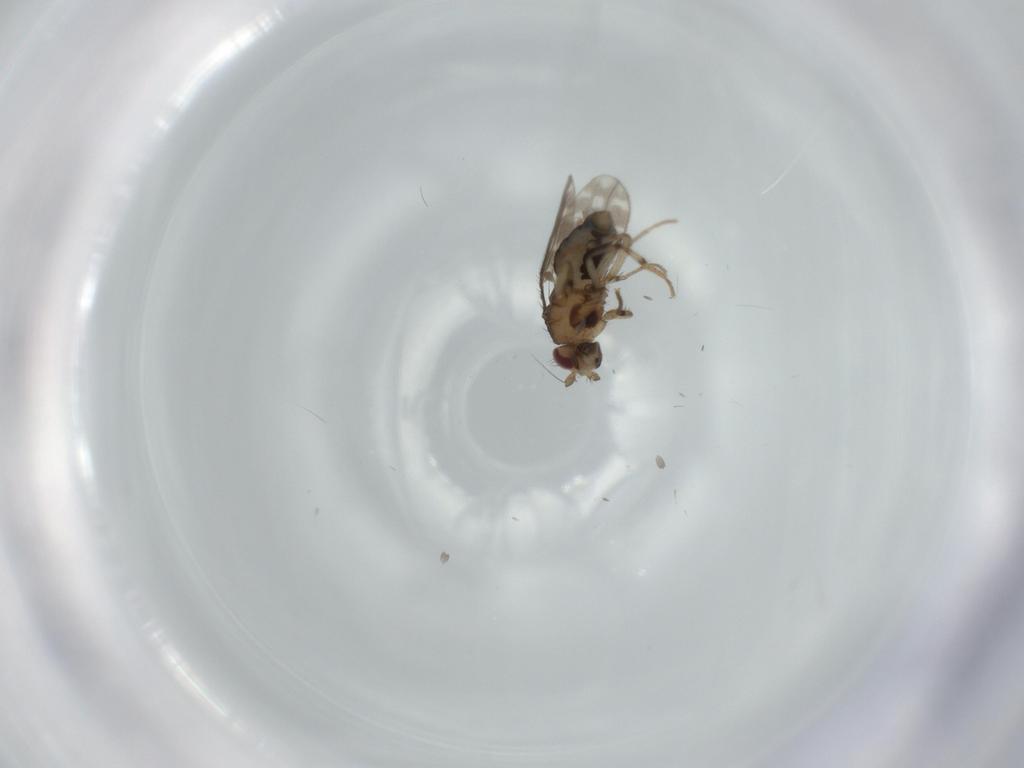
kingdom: Animalia
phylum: Arthropoda
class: Insecta
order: Diptera
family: Sphaeroceridae
